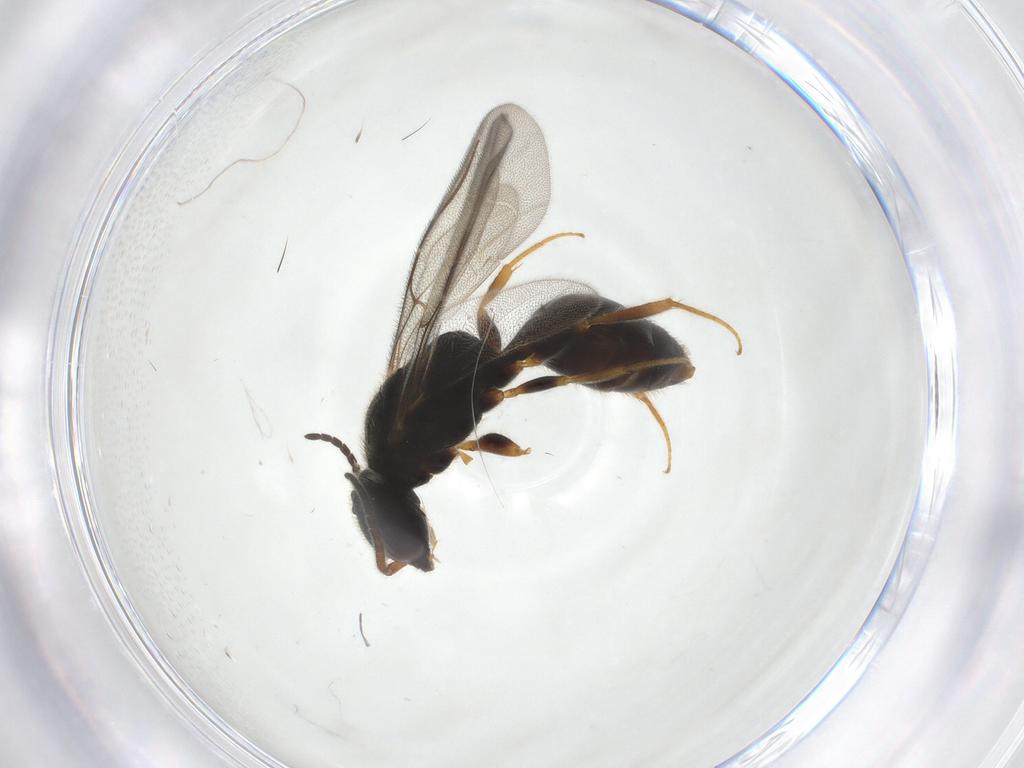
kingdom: Animalia
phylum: Arthropoda
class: Insecta
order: Hymenoptera
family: Bethylidae
